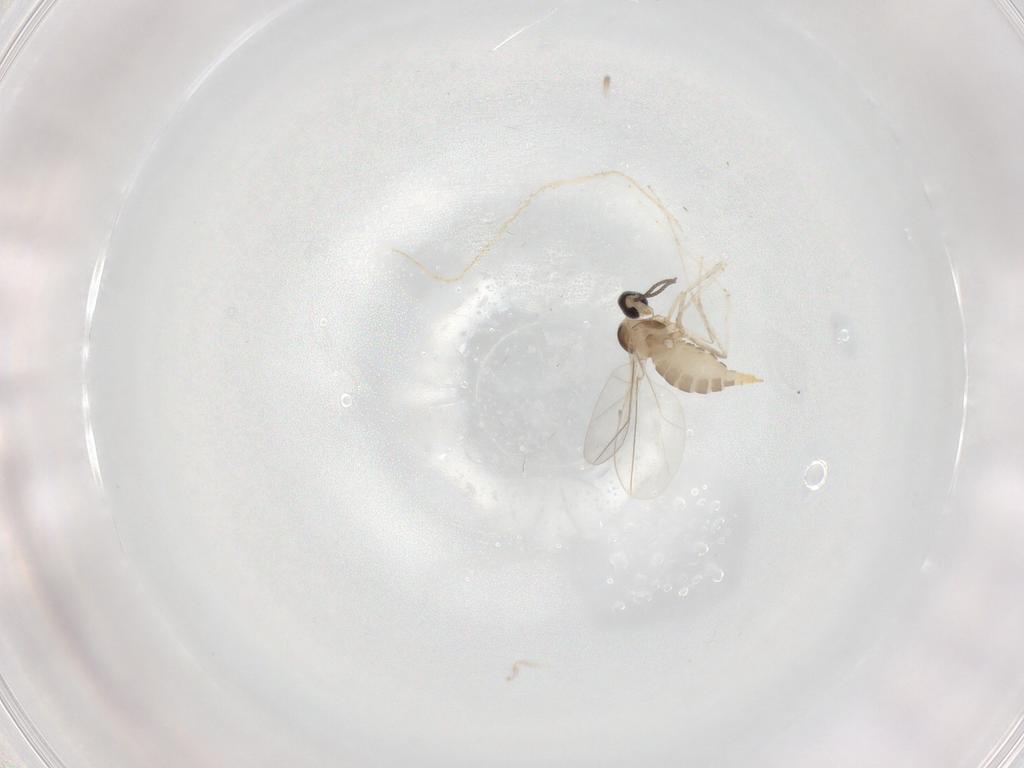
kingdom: Animalia
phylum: Arthropoda
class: Insecta
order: Diptera
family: Cecidomyiidae
